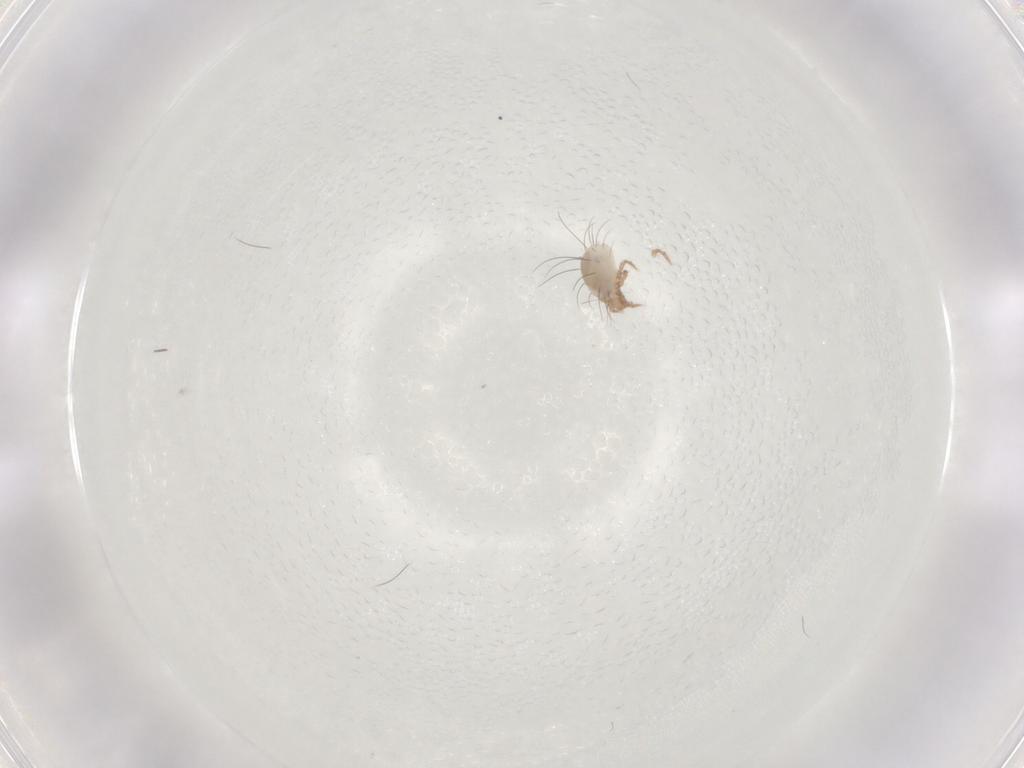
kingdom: Animalia
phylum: Arthropoda
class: Arachnida
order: Sarcoptiformes
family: Ceratozetidae
